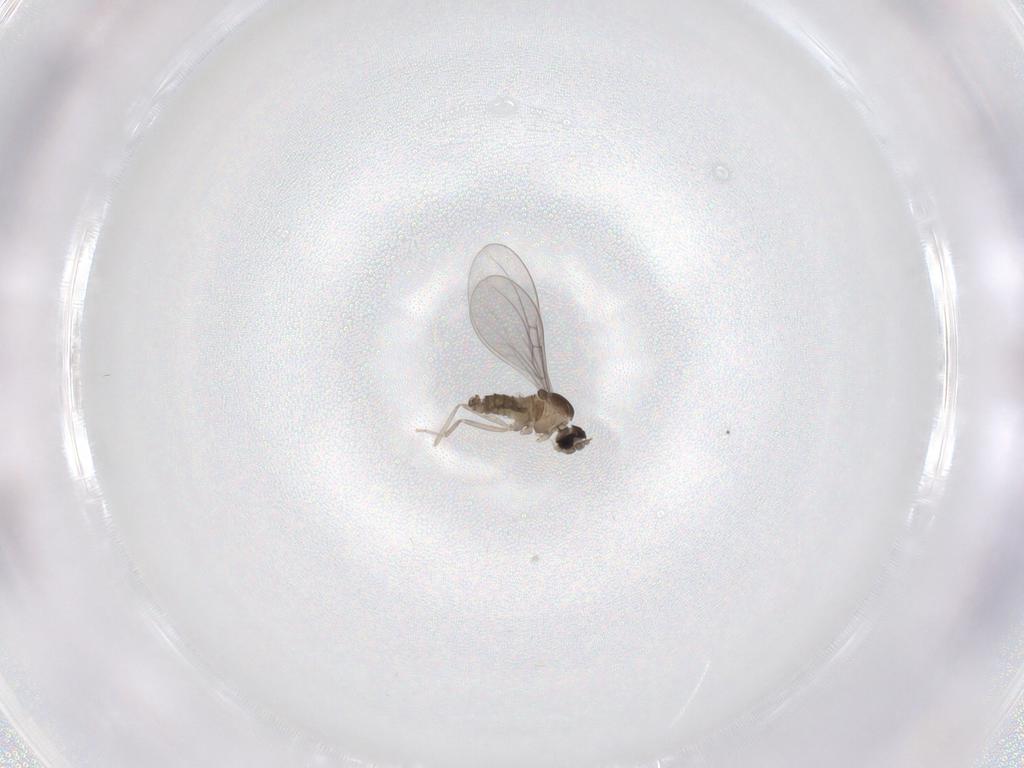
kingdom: Animalia
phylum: Arthropoda
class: Insecta
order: Diptera
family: Cecidomyiidae
